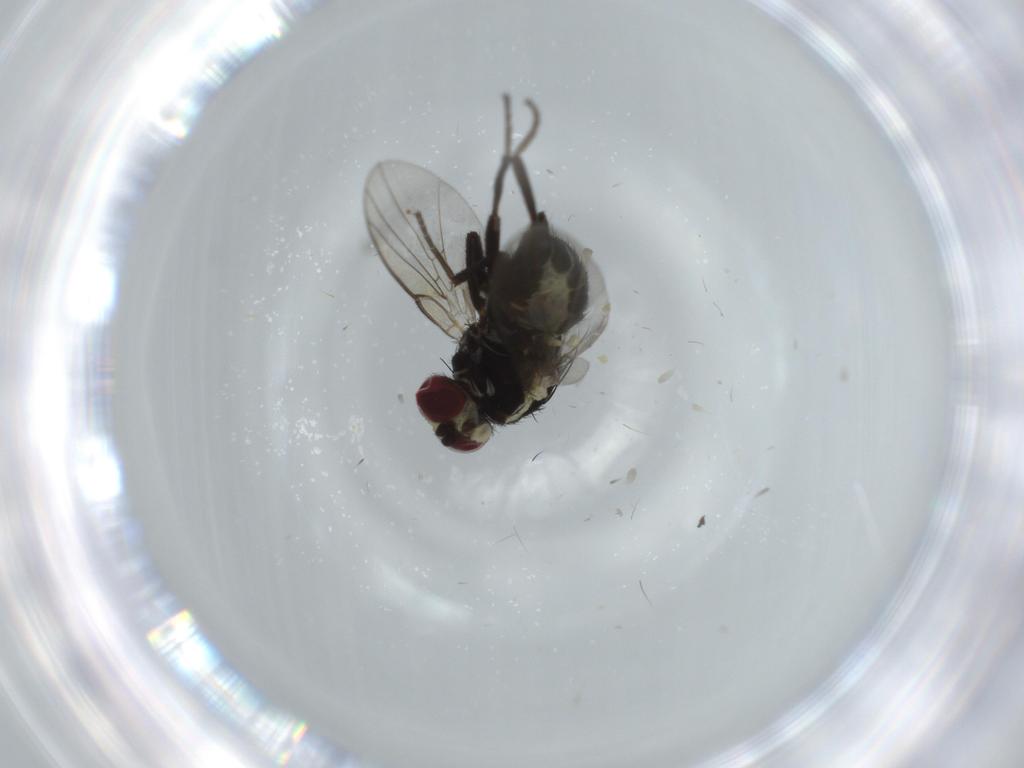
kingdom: Animalia
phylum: Arthropoda
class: Insecta
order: Diptera
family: Agromyzidae
